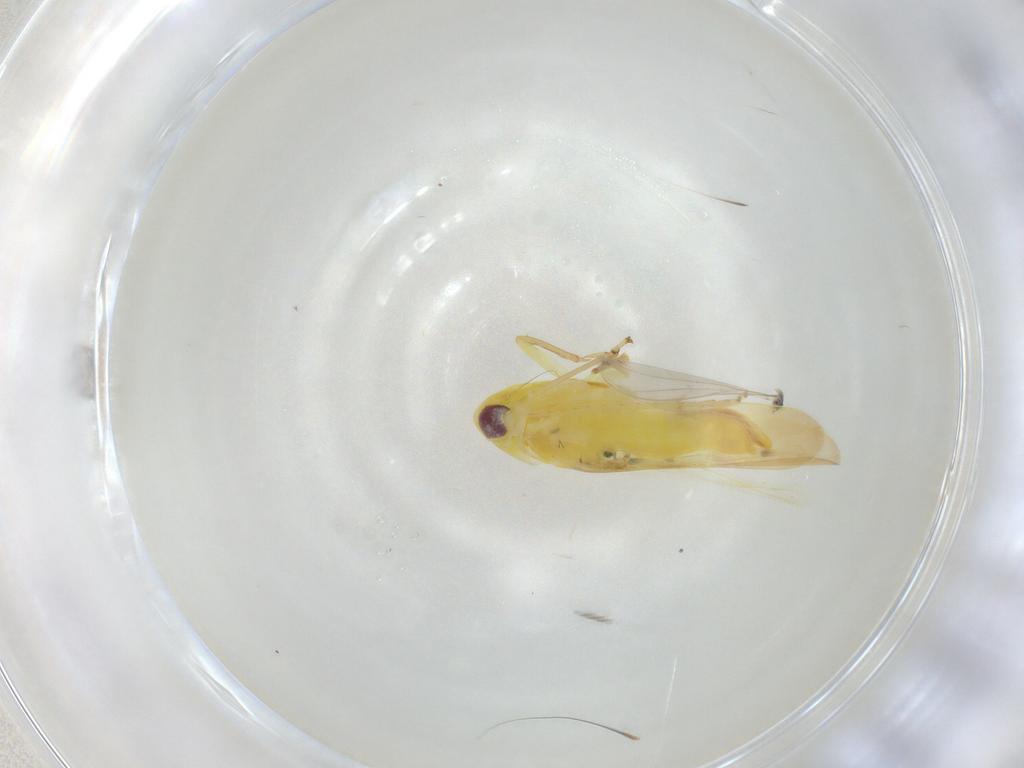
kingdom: Animalia
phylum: Arthropoda
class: Insecta
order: Hemiptera
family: Cicadellidae
